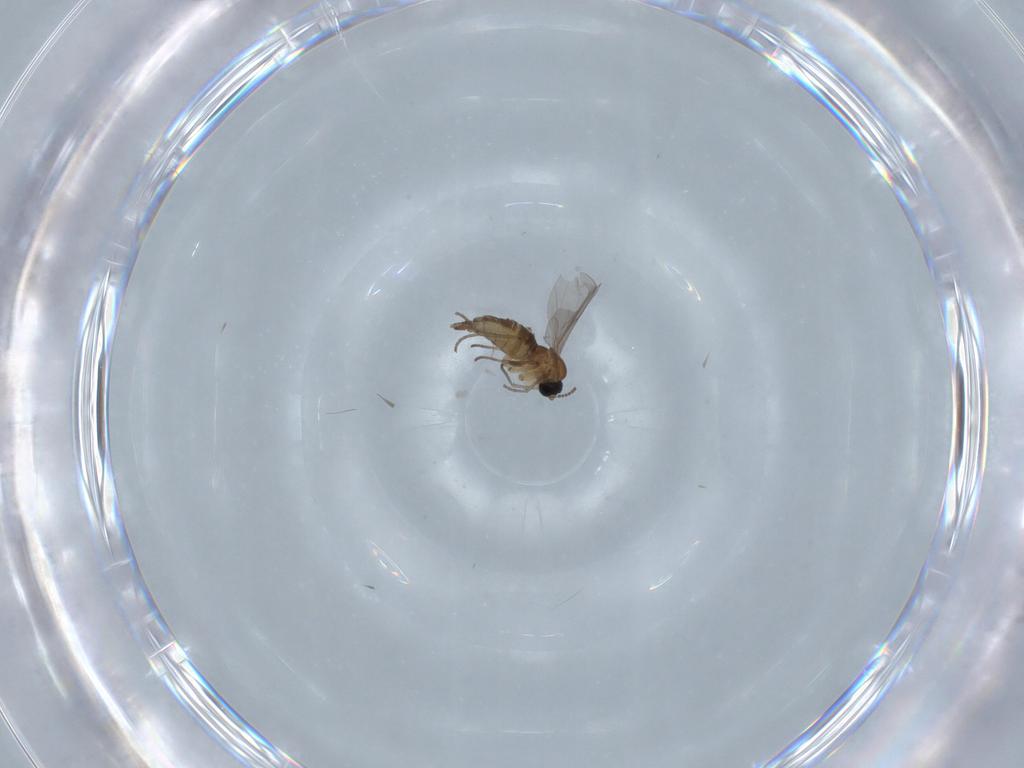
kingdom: Animalia
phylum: Arthropoda
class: Insecta
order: Diptera
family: Sciaridae
